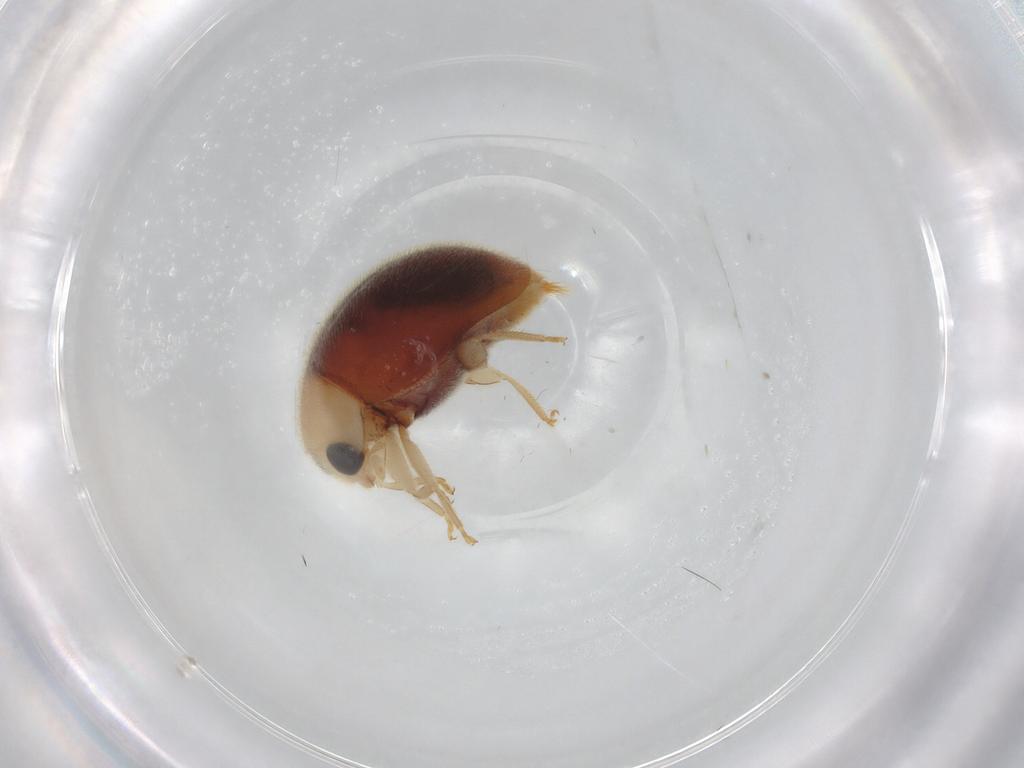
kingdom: Animalia
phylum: Arthropoda
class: Insecta
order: Coleoptera
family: Coccinellidae
